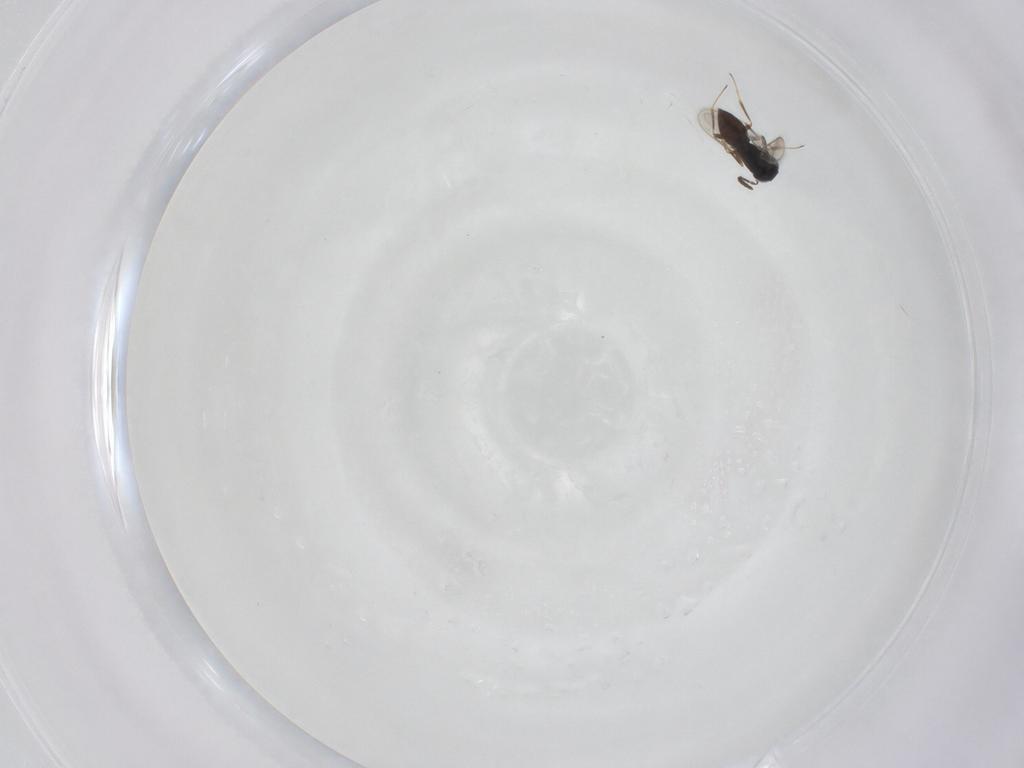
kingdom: Animalia
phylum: Arthropoda
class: Insecta
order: Hymenoptera
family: Scelionidae
